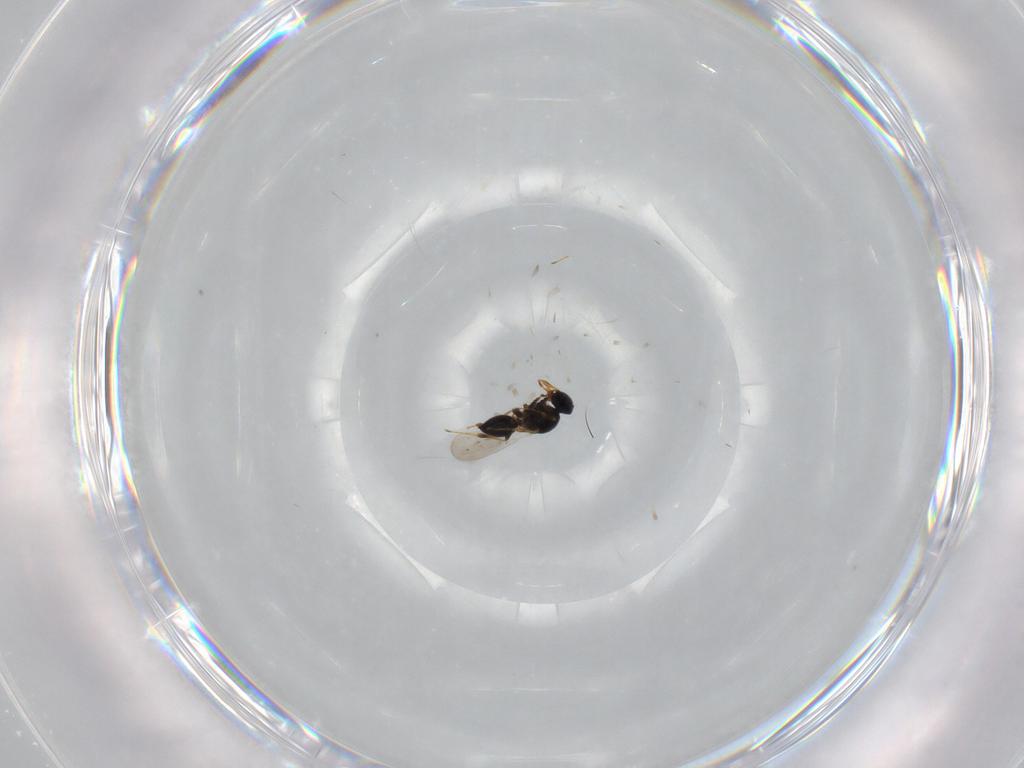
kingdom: Animalia
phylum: Arthropoda
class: Insecta
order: Hymenoptera
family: Platygastridae
